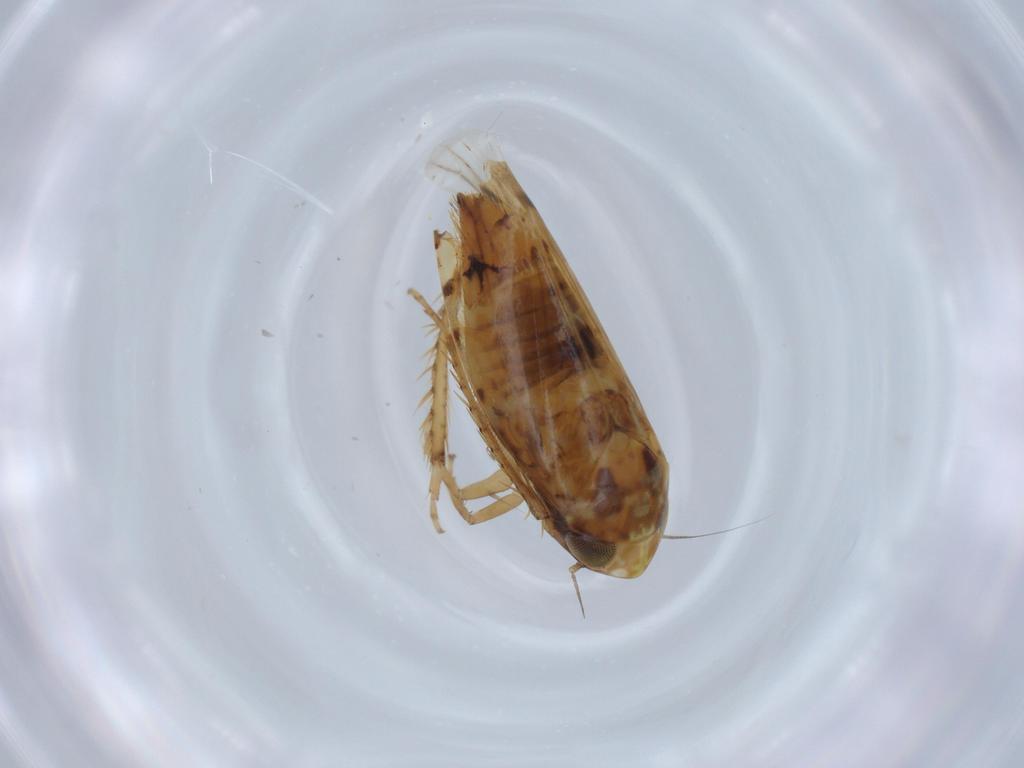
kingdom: Animalia
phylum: Arthropoda
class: Insecta
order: Hemiptera
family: Cicadellidae
